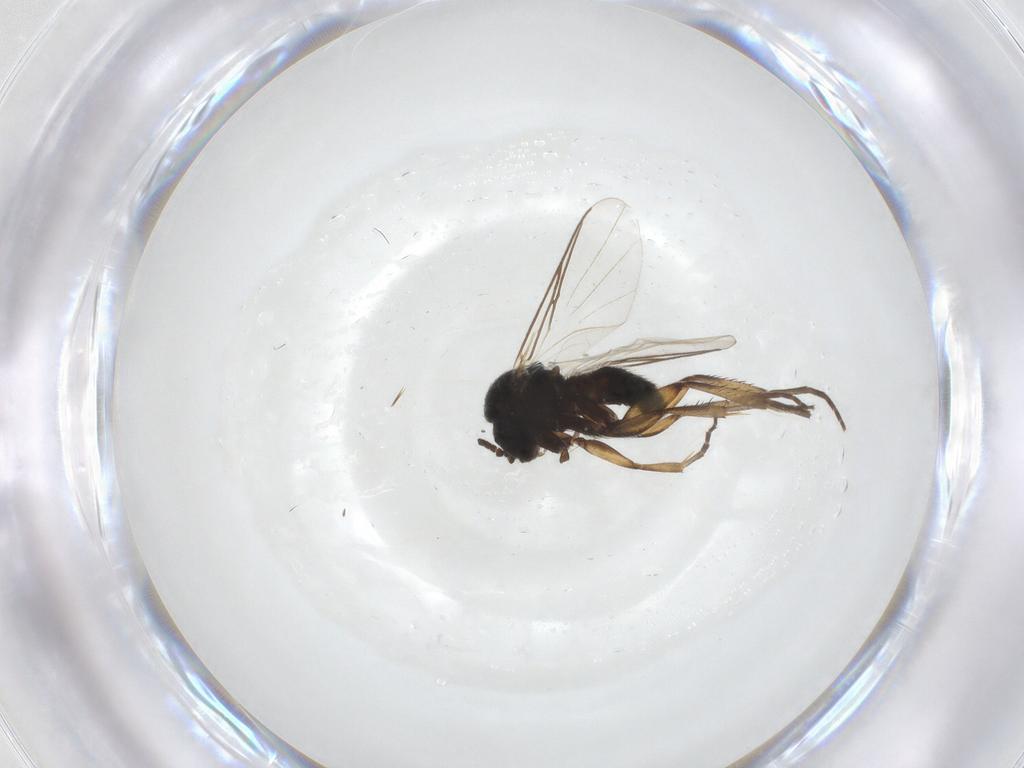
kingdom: Animalia
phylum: Arthropoda
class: Insecta
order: Diptera
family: Mycetophilidae
